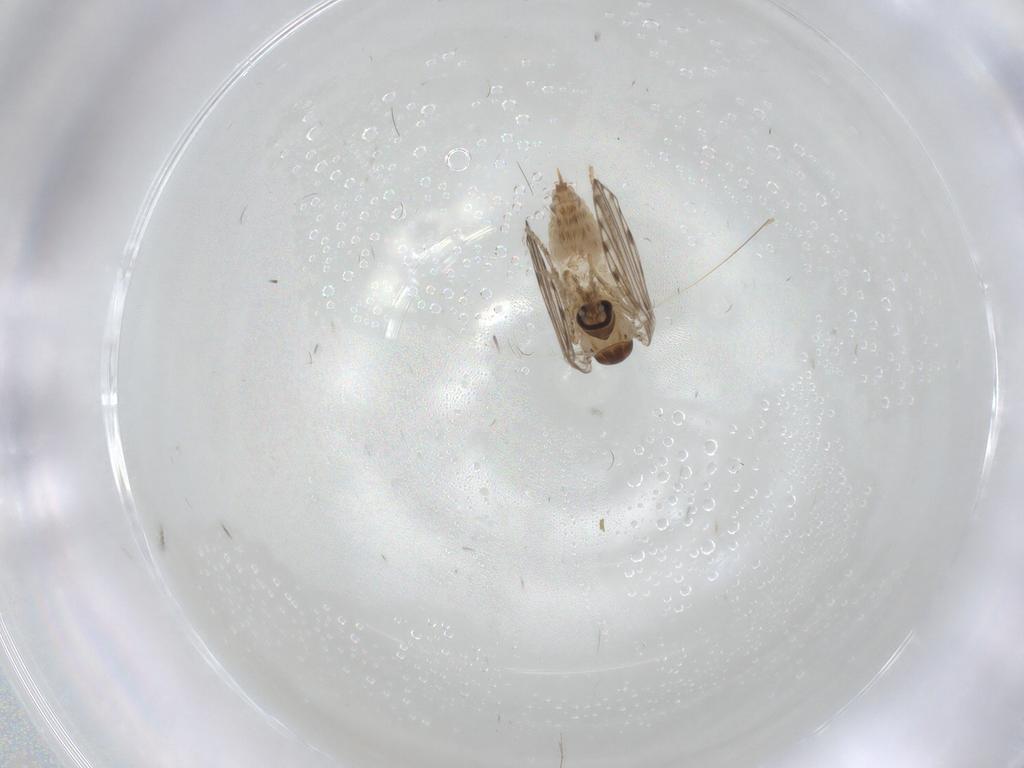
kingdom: Animalia
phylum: Arthropoda
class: Insecta
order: Diptera
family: Psychodidae
